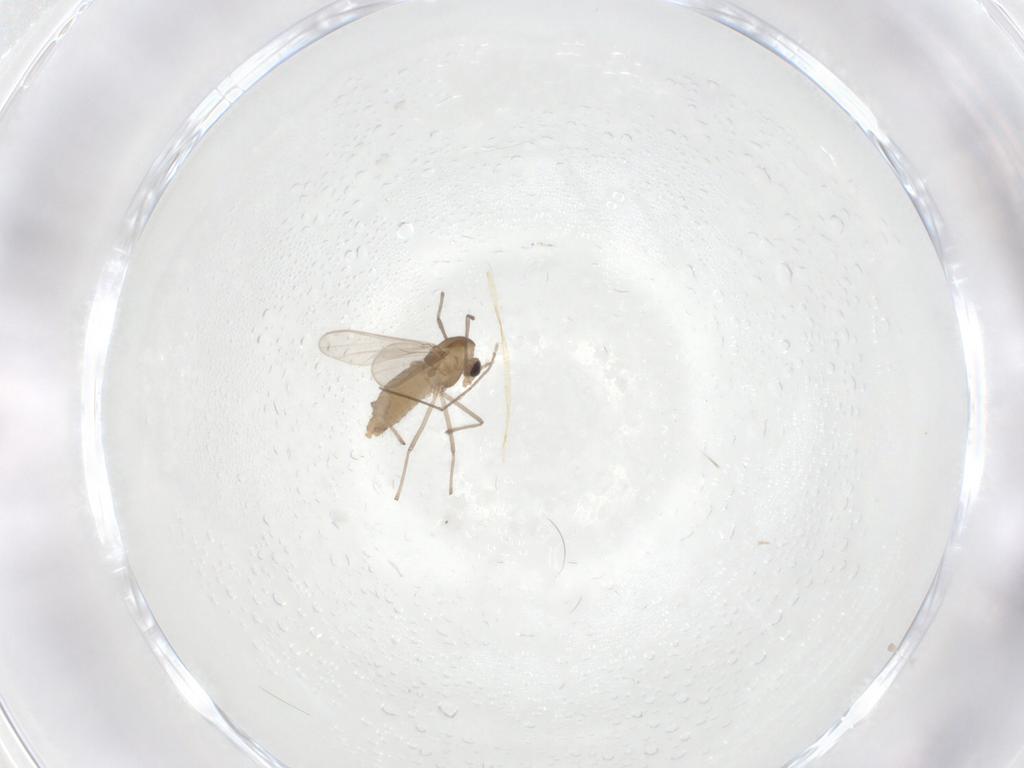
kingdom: Animalia
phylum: Arthropoda
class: Insecta
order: Diptera
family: Chironomidae
